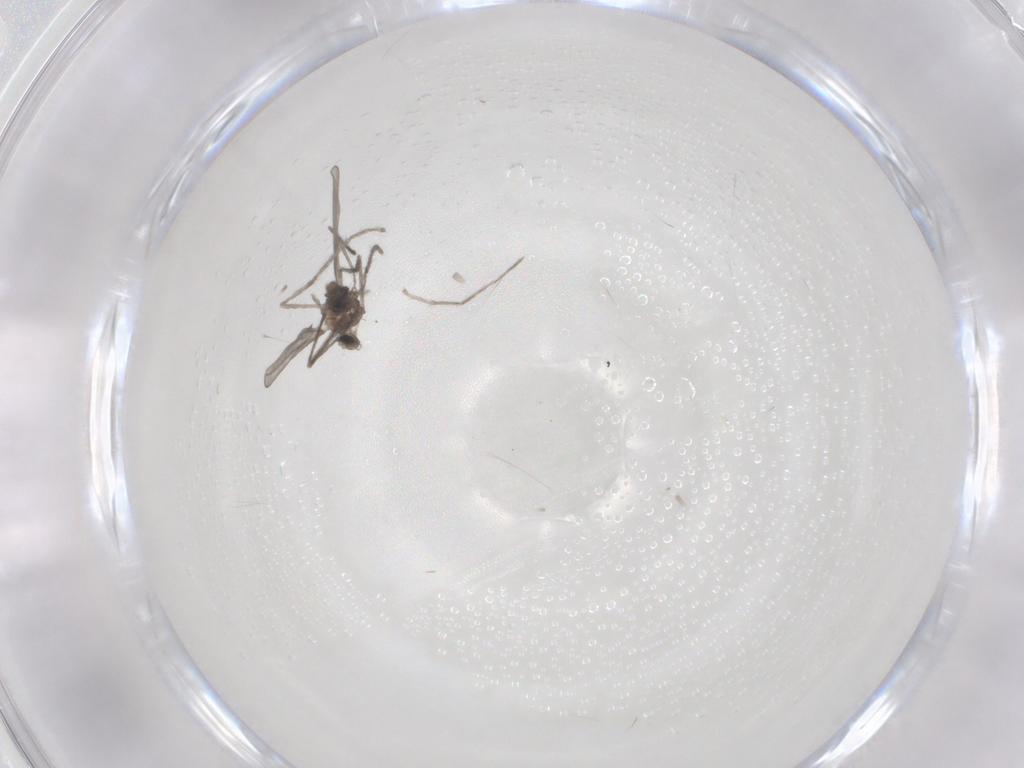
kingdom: Animalia
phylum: Arthropoda
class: Insecta
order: Diptera
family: Cecidomyiidae
